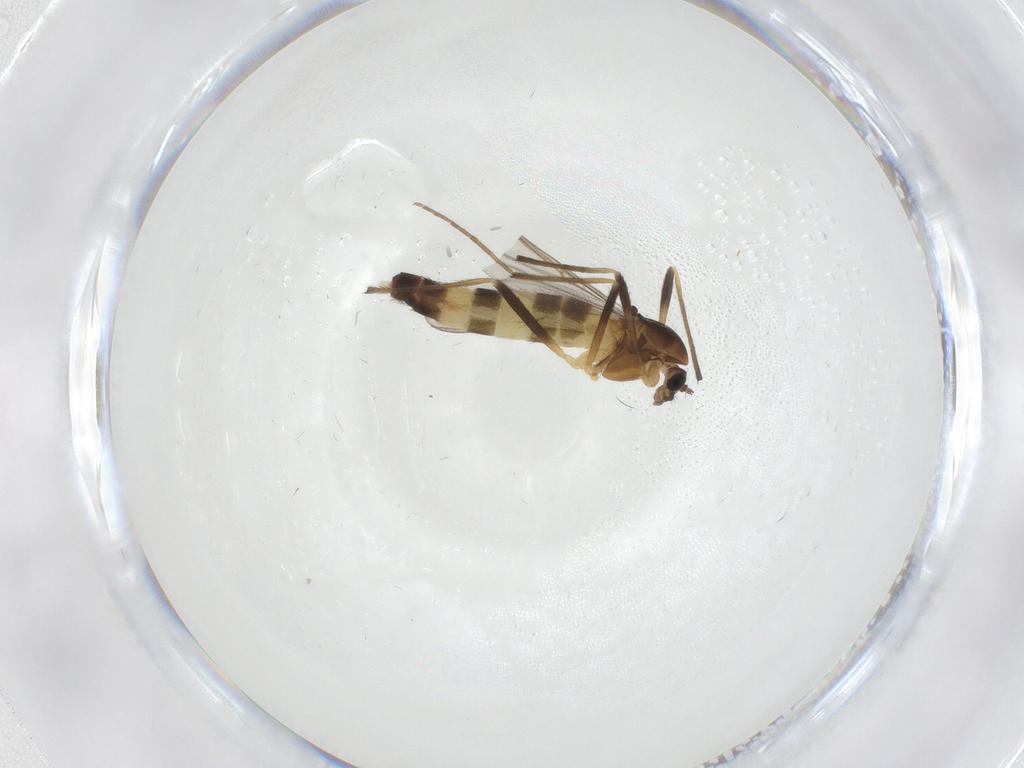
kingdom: Animalia
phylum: Arthropoda
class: Insecta
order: Diptera
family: Chironomidae
